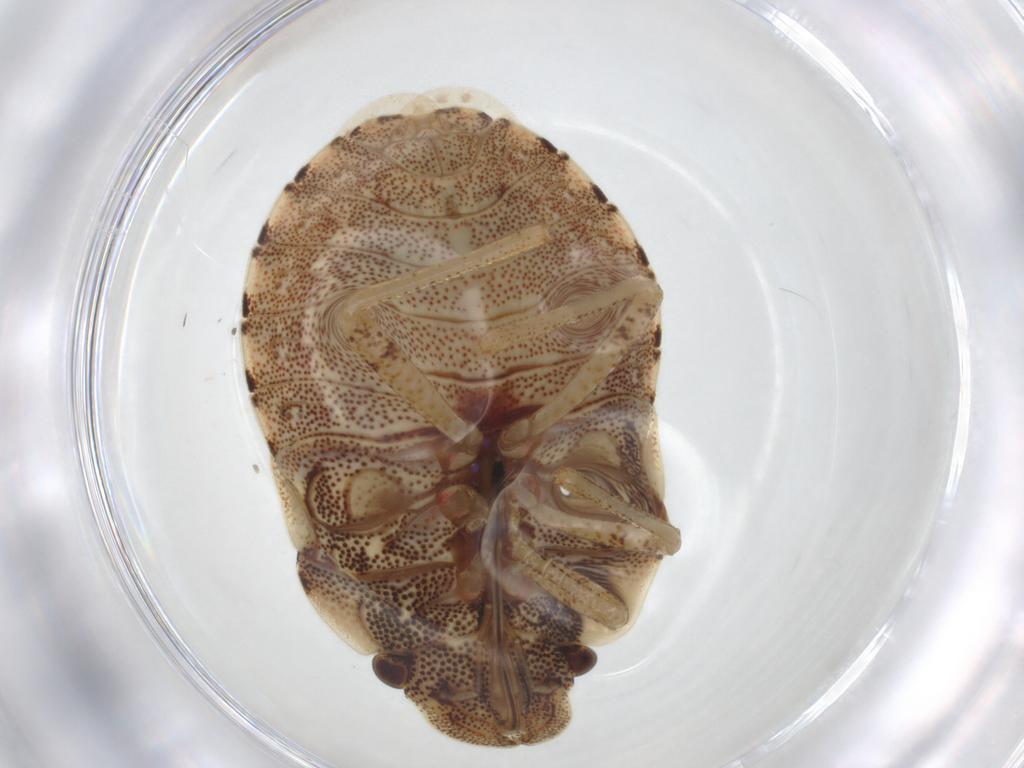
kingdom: Animalia
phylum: Arthropoda
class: Insecta
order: Hemiptera
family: Pentatomidae
